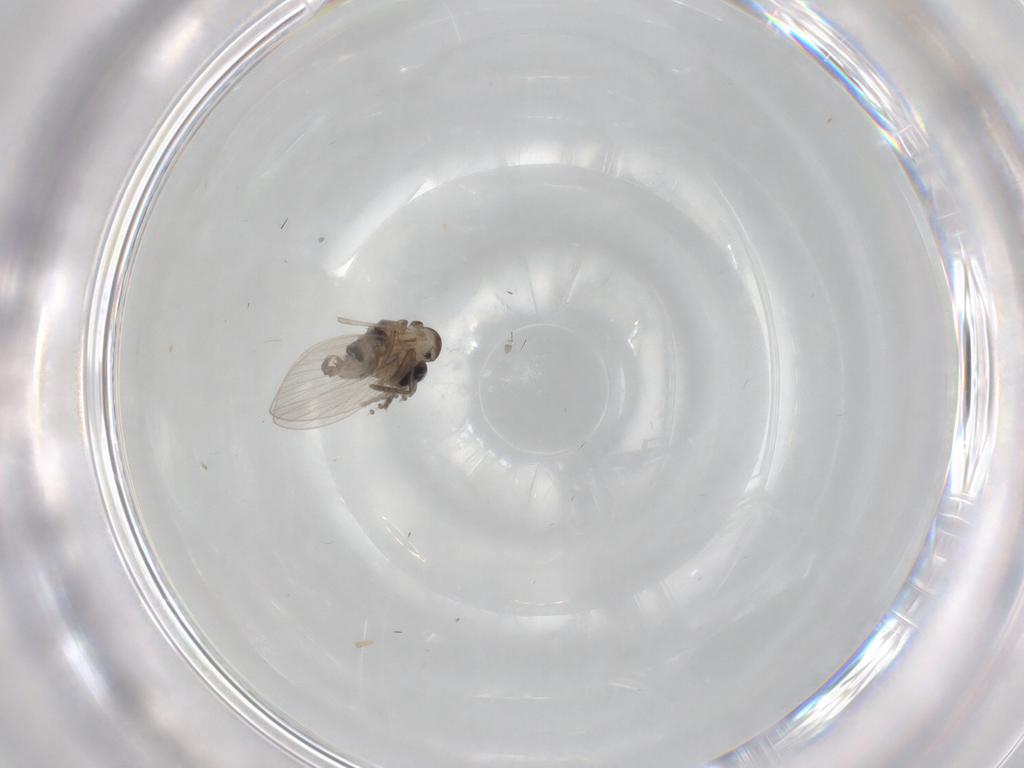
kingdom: Animalia
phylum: Arthropoda
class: Insecta
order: Diptera
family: Psychodidae
